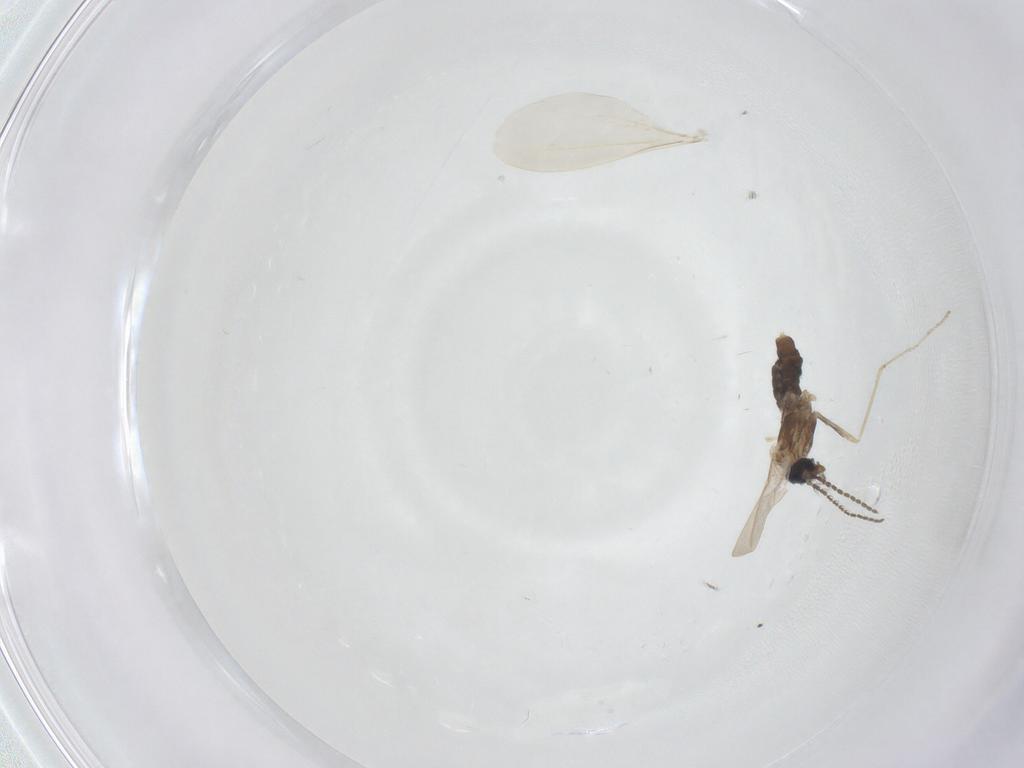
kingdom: Animalia
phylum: Arthropoda
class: Insecta
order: Diptera
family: Cecidomyiidae
